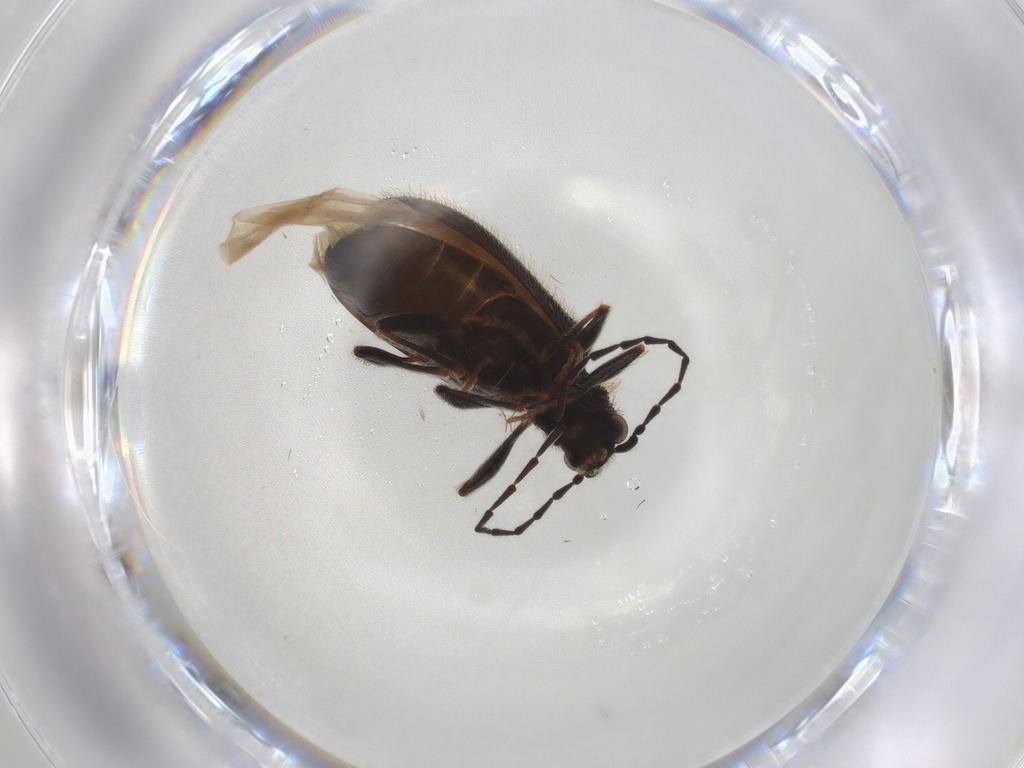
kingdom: Animalia
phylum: Arthropoda
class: Insecta
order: Coleoptera
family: Ptinidae
